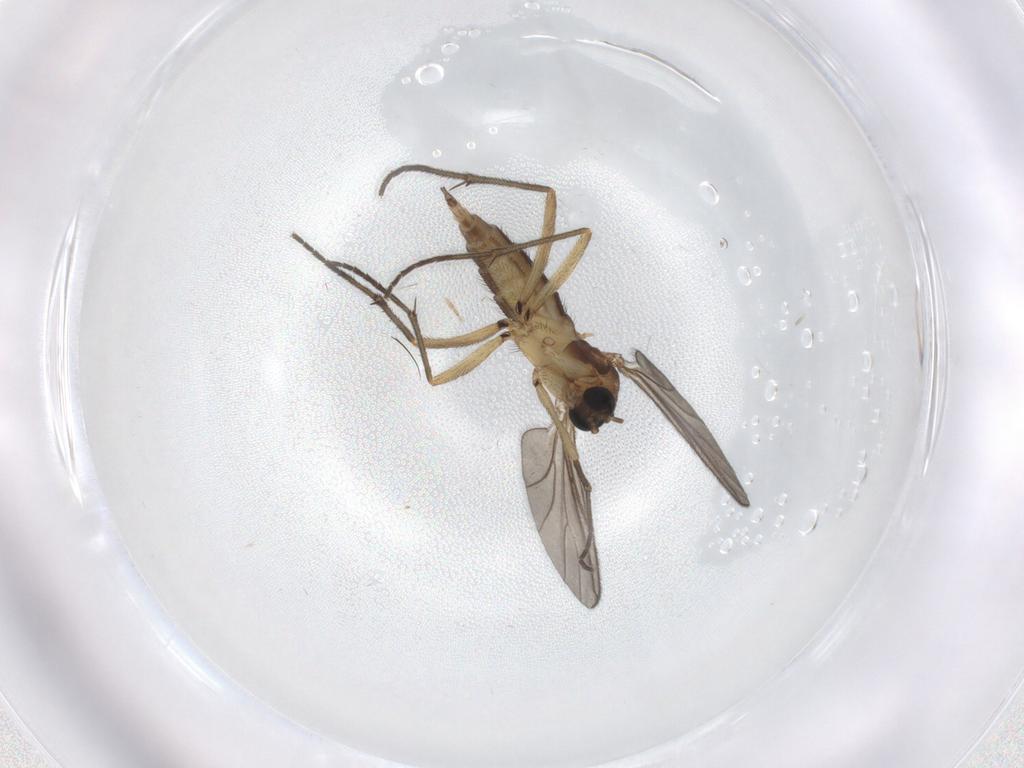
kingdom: Animalia
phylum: Arthropoda
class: Insecta
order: Diptera
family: Sciaridae
